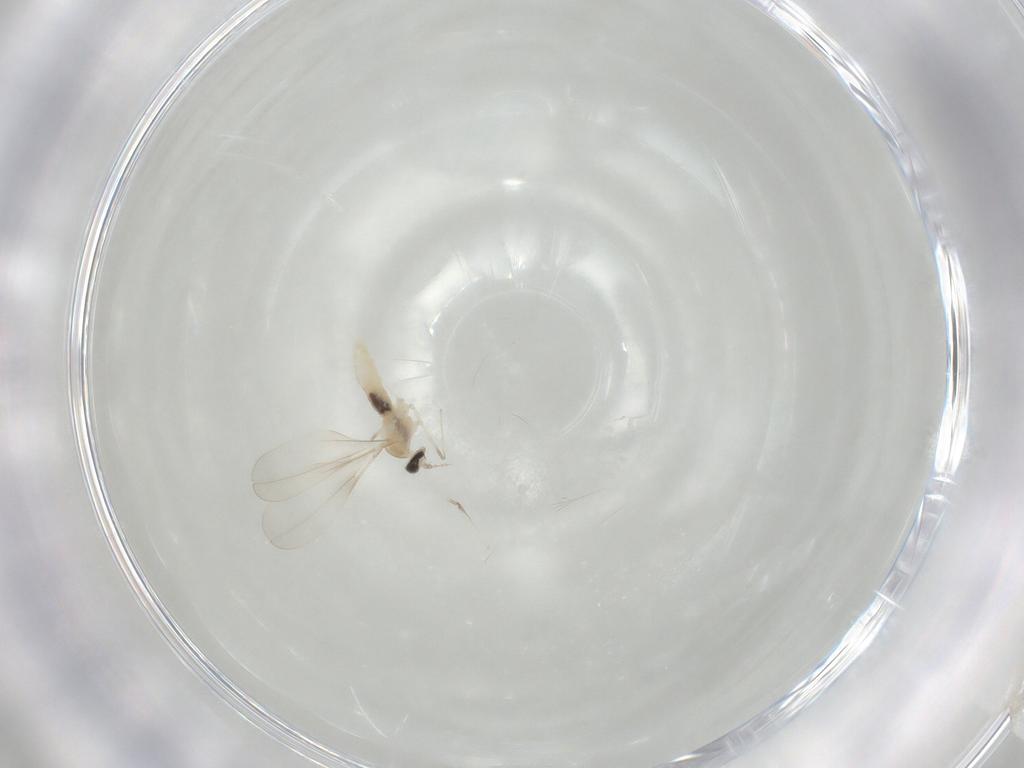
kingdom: Animalia
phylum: Arthropoda
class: Insecta
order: Diptera
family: Cecidomyiidae
